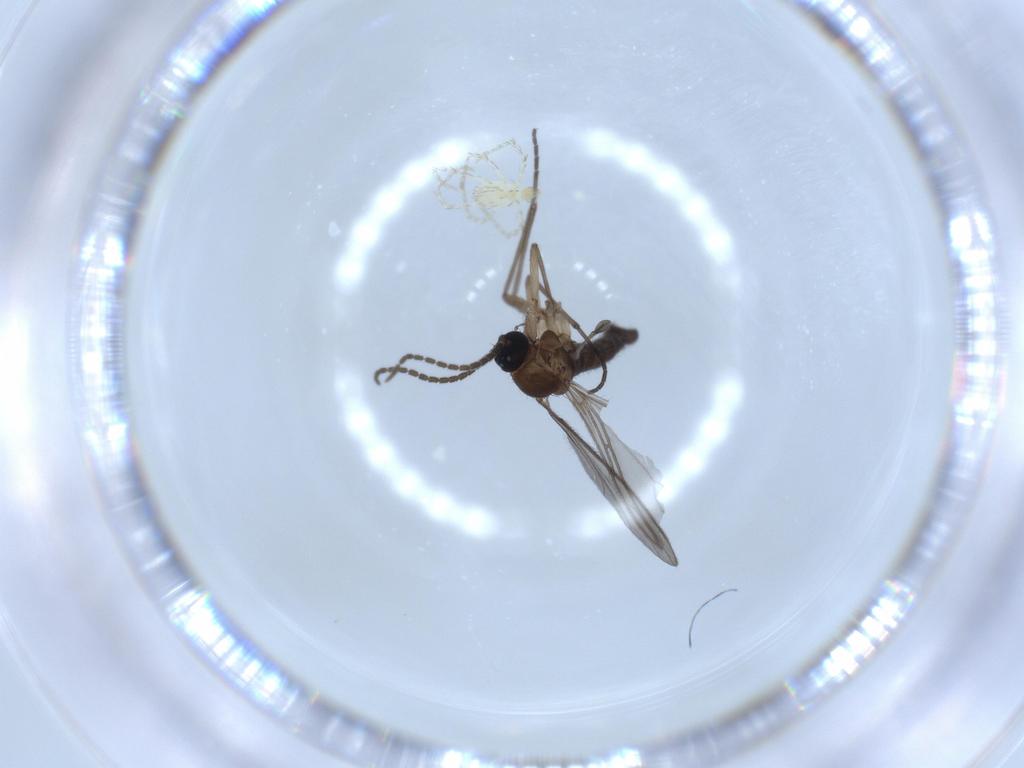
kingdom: Animalia
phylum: Arthropoda
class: Insecta
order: Diptera
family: Sciaridae
